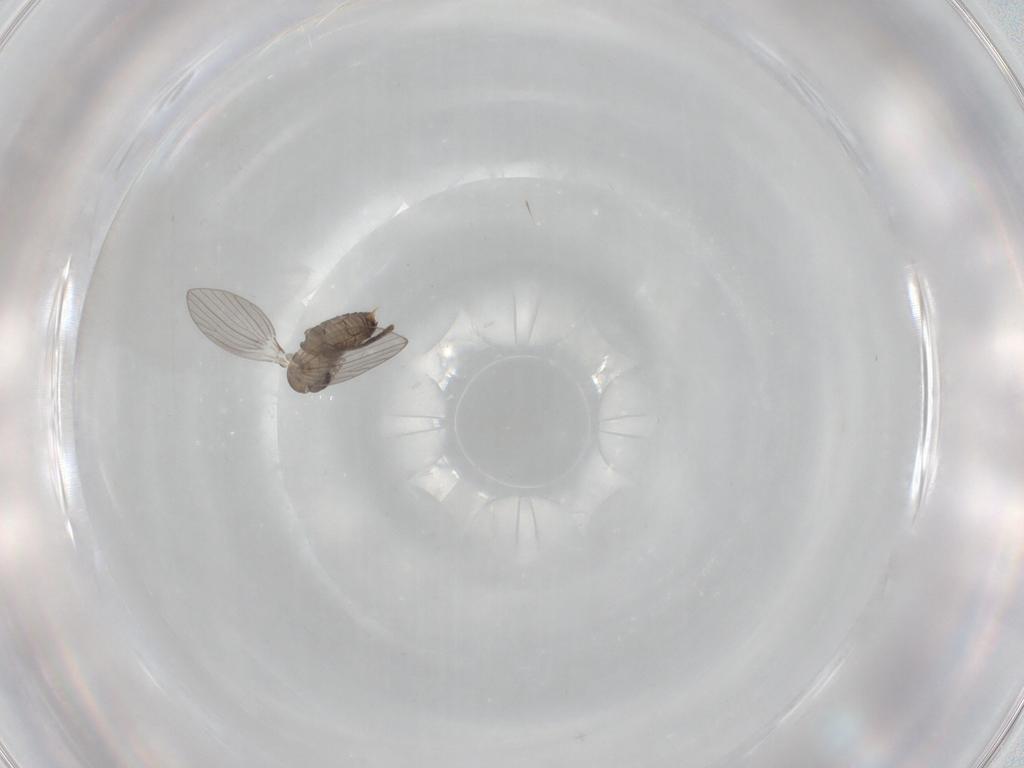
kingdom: Animalia
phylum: Arthropoda
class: Insecta
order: Diptera
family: Psychodidae
